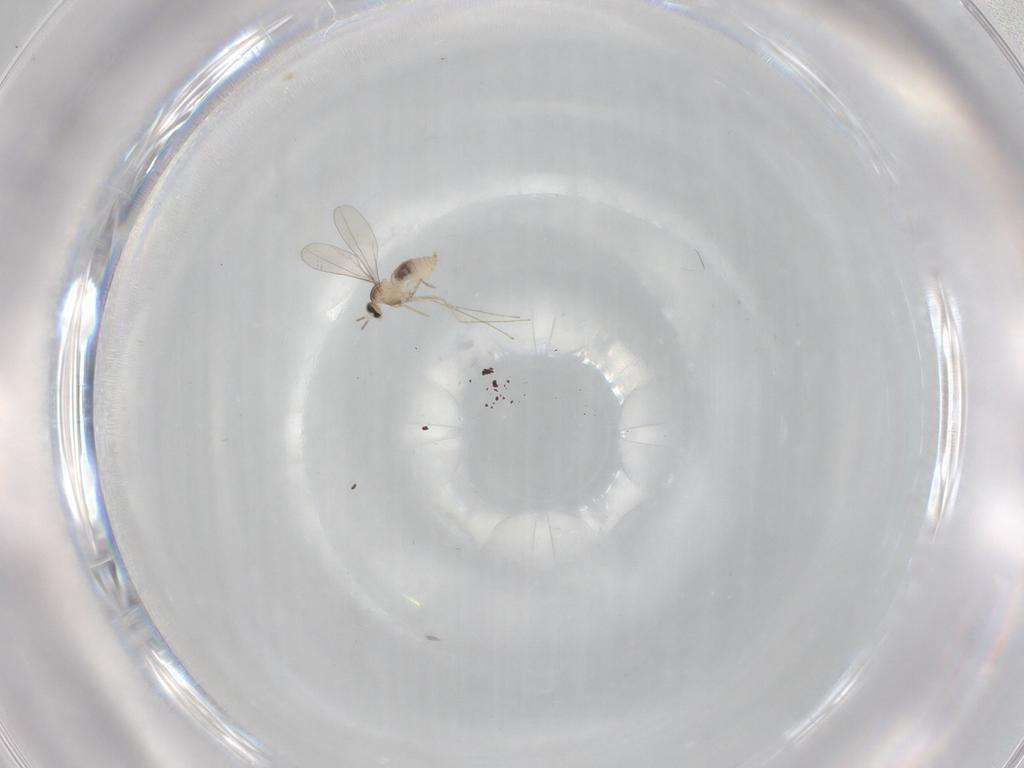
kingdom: Animalia
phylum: Arthropoda
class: Insecta
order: Diptera
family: Cecidomyiidae
